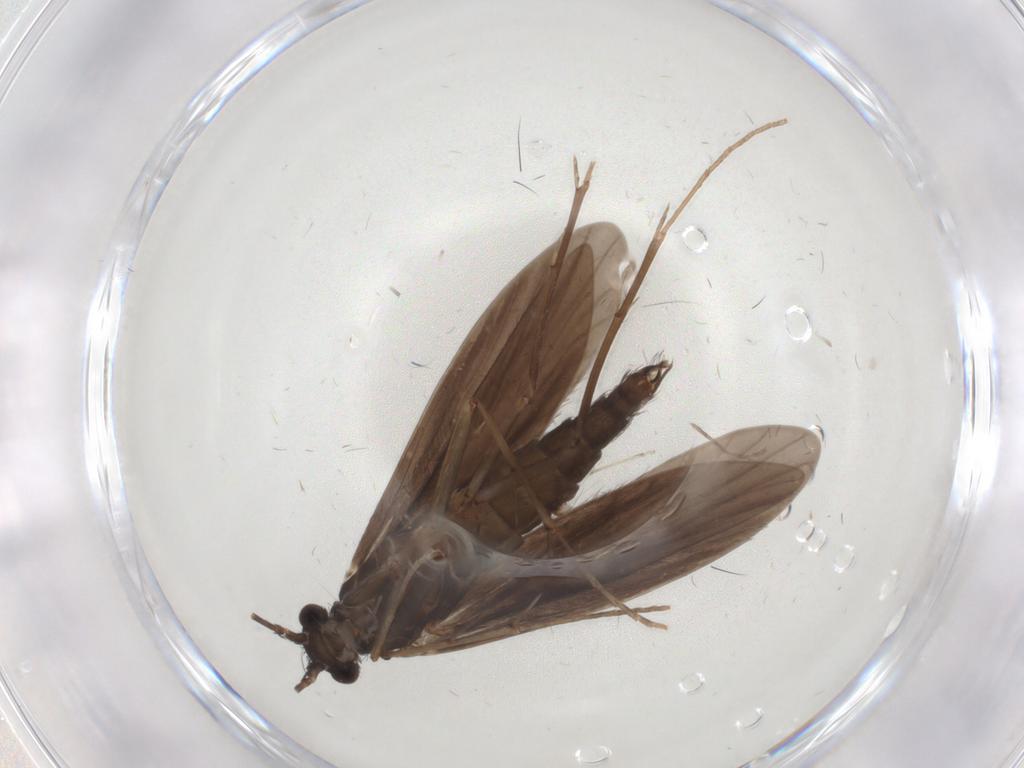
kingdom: Animalia
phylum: Arthropoda
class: Insecta
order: Trichoptera
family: Xiphocentronidae
